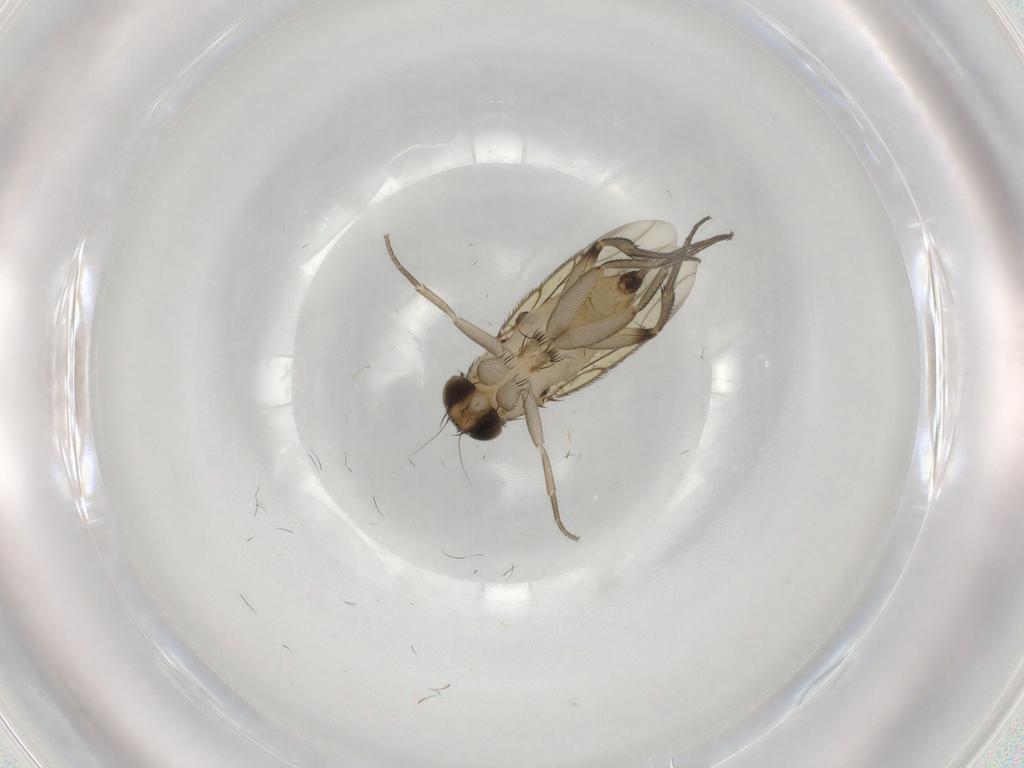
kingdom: Animalia
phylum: Arthropoda
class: Insecta
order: Diptera
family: Phoridae
